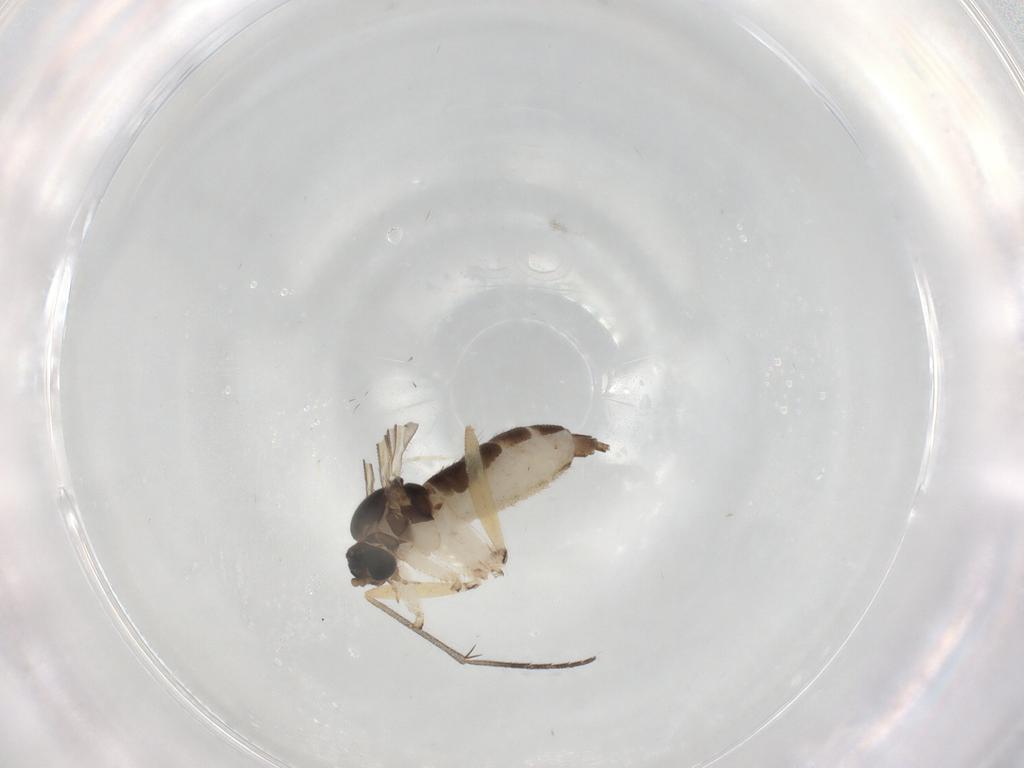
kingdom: Animalia
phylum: Arthropoda
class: Insecta
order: Diptera
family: Sciaridae
